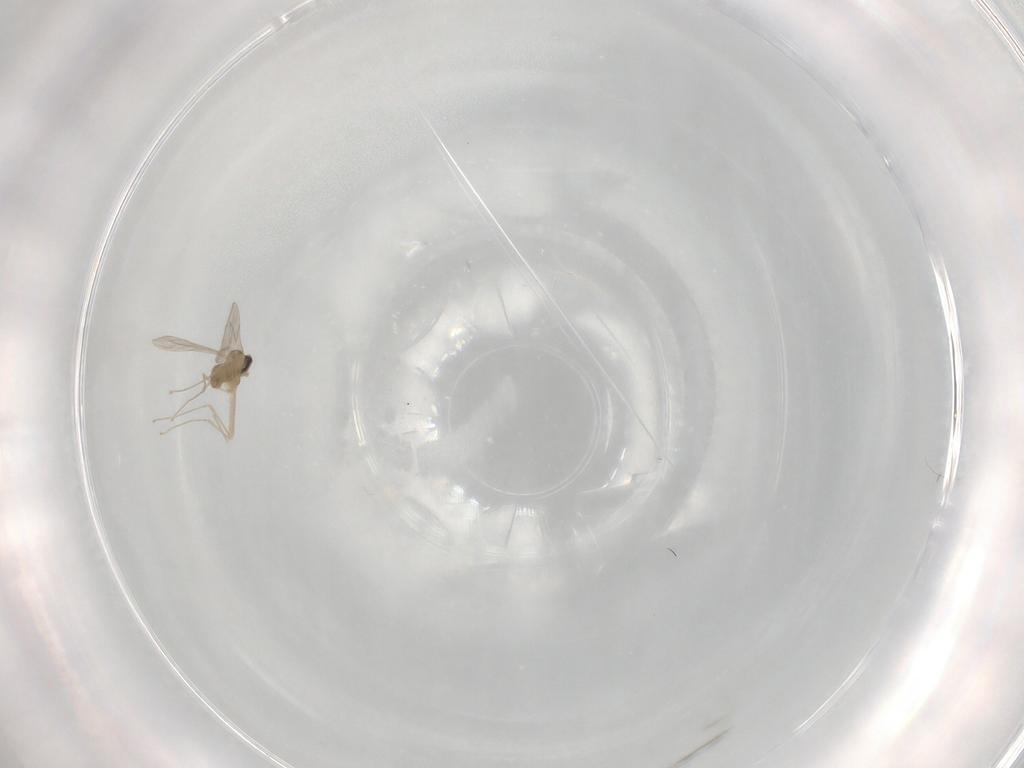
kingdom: Animalia
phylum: Arthropoda
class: Insecta
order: Diptera
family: Cecidomyiidae
